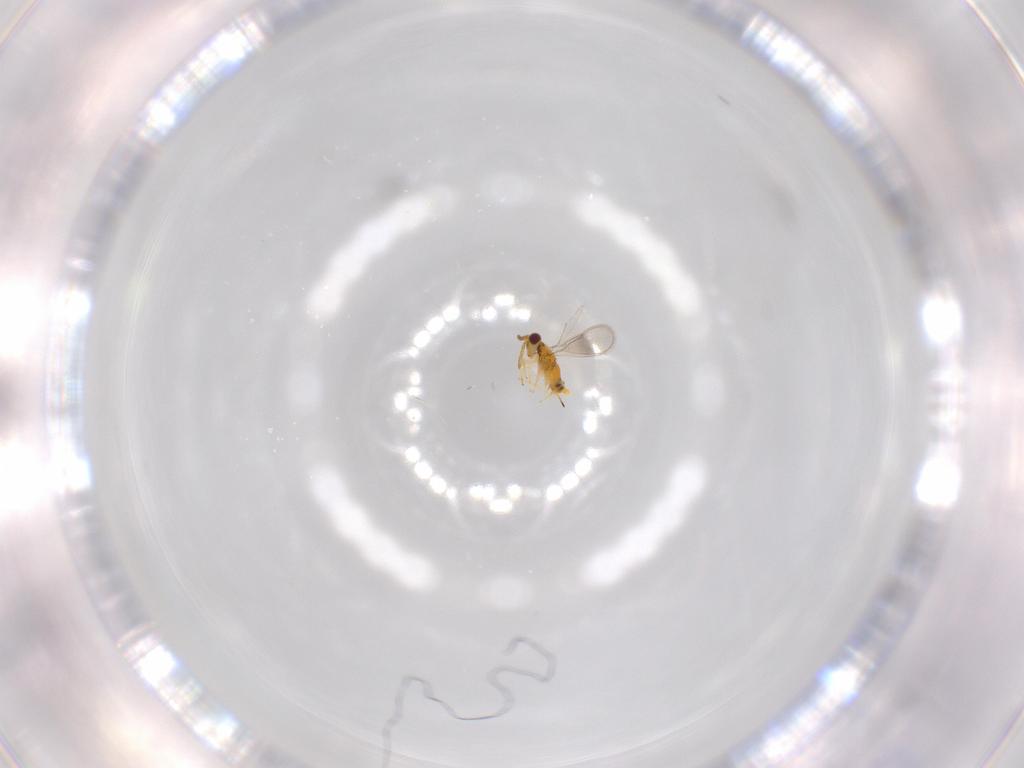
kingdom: Animalia
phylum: Arthropoda
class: Insecta
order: Hymenoptera
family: Aphelinidae
